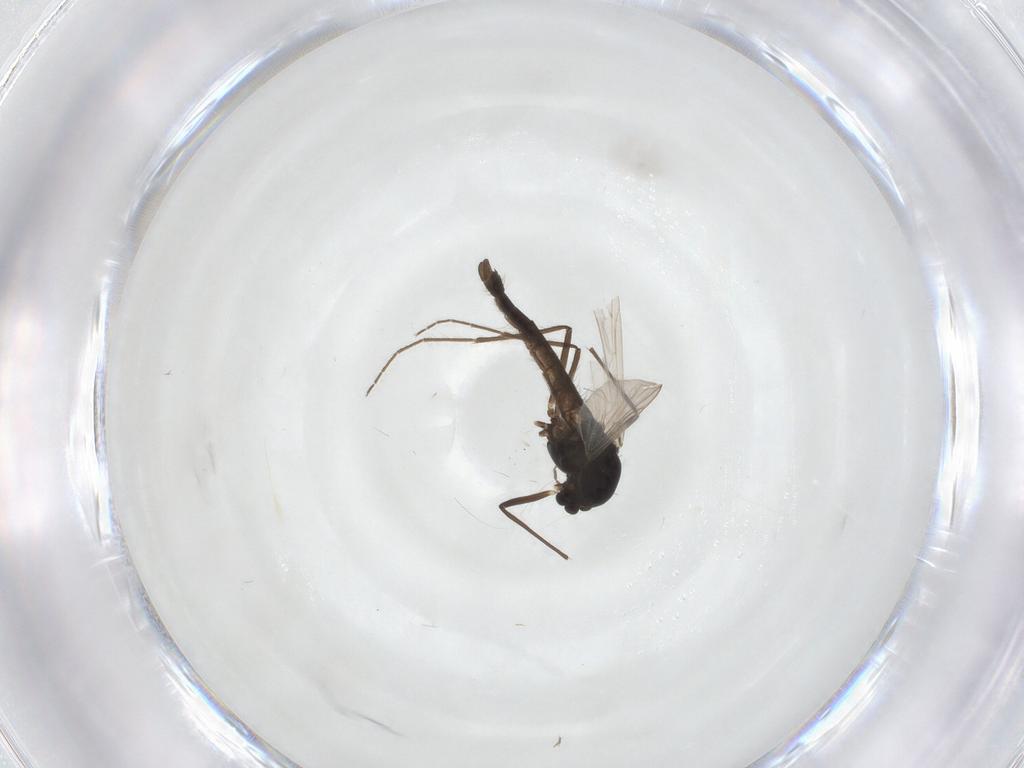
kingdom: Animalia
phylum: Arthropoda
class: Insecta
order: Diptera
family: Chironomidae
